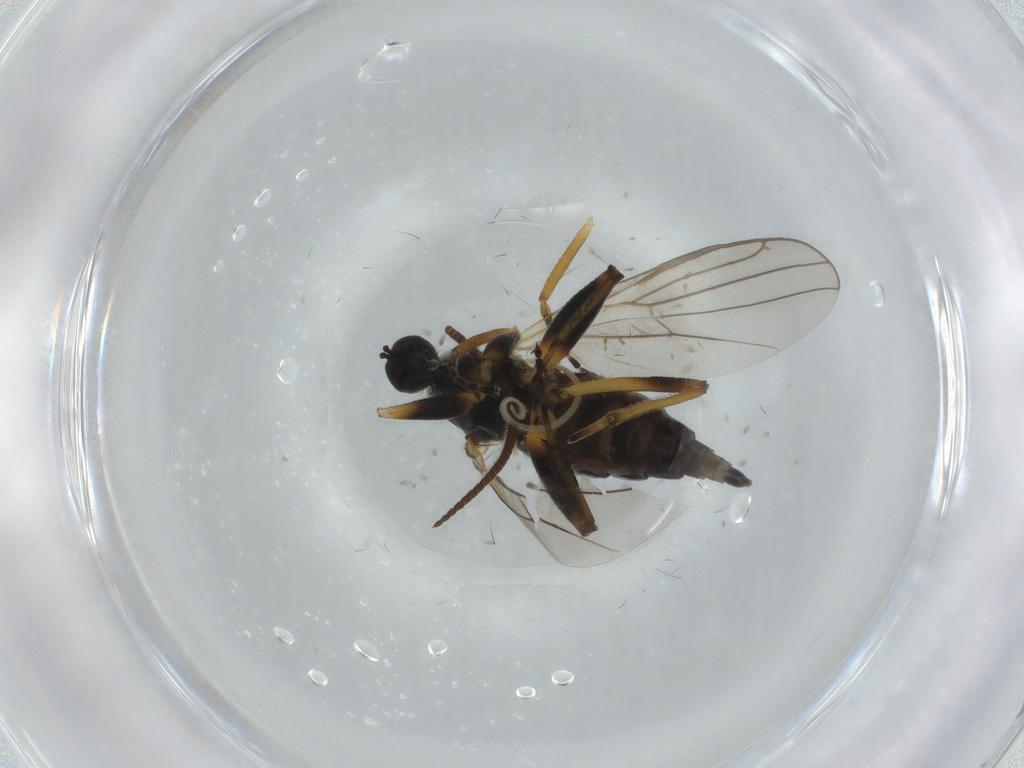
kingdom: Animalia
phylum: Arthropoda
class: Insecta
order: Diptera
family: Hybotidae
